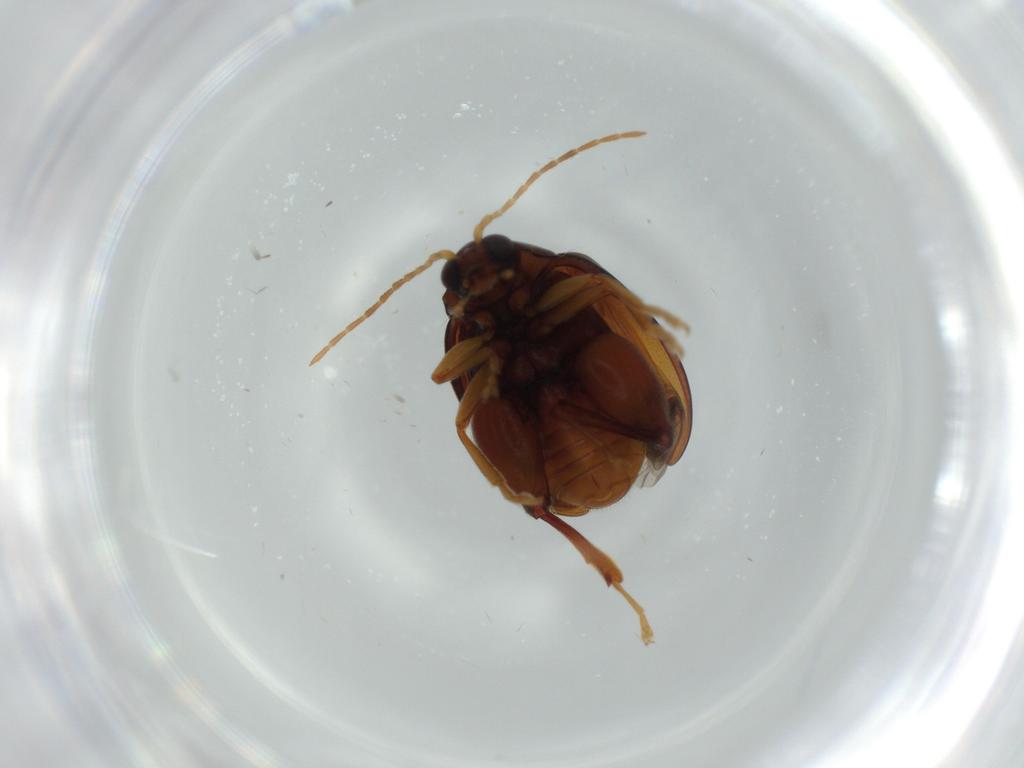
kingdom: Animalia
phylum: Arthropoda
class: Insecta
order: Coleoptera
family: Chrysomelidae
